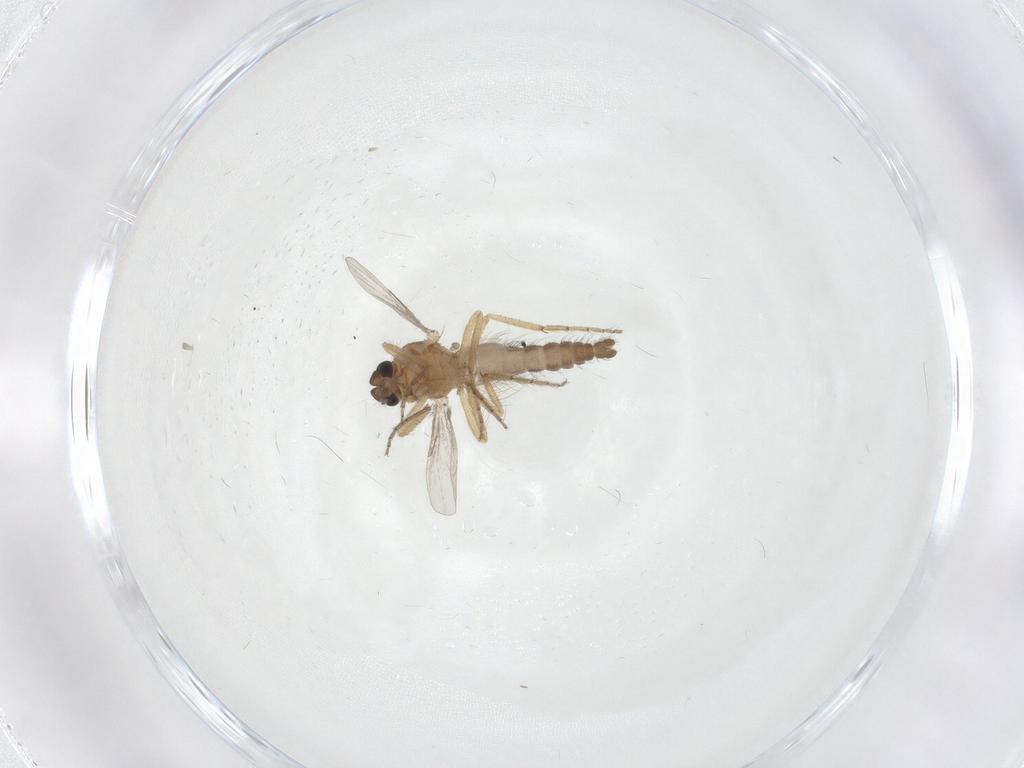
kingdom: Animalia
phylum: Arthropoda
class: Insecta
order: Diptera
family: Ceratopogonidae
